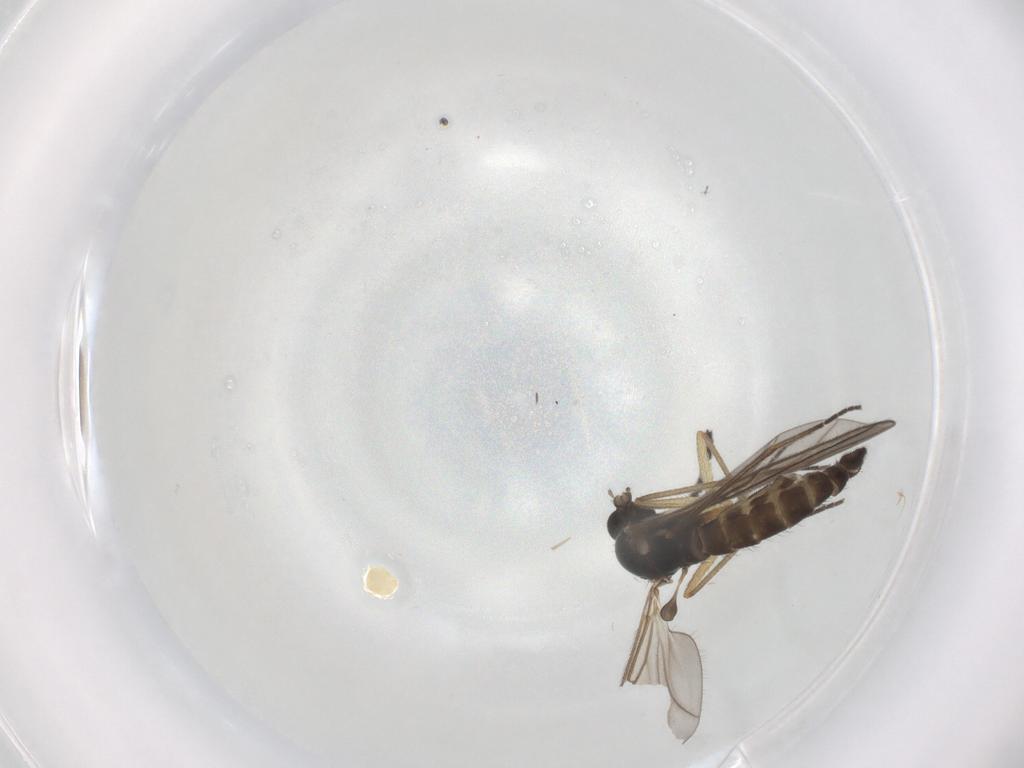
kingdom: Animalia
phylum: Arthropoda
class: Insecta
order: Diptera
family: Sciaridae
